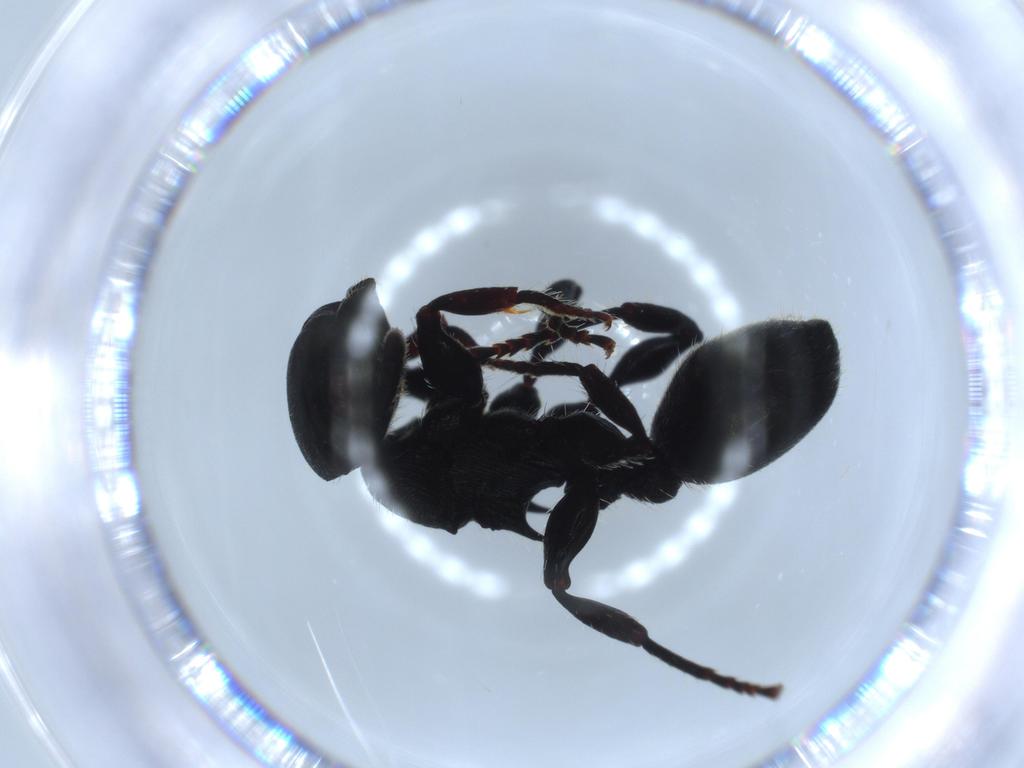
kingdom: Animalia
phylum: Arthropoda
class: Insecta
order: Hymenoptera
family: Formicidae
